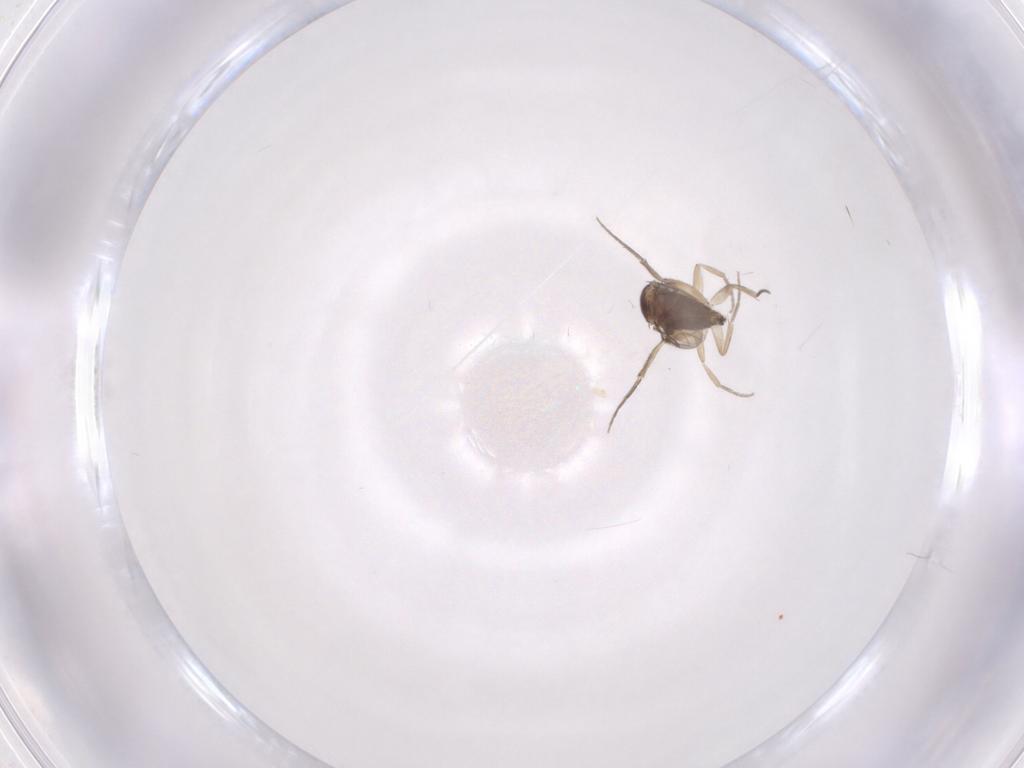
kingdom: Animalia
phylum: Arthropoda
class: Insecta
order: Diptera
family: Phoridae
